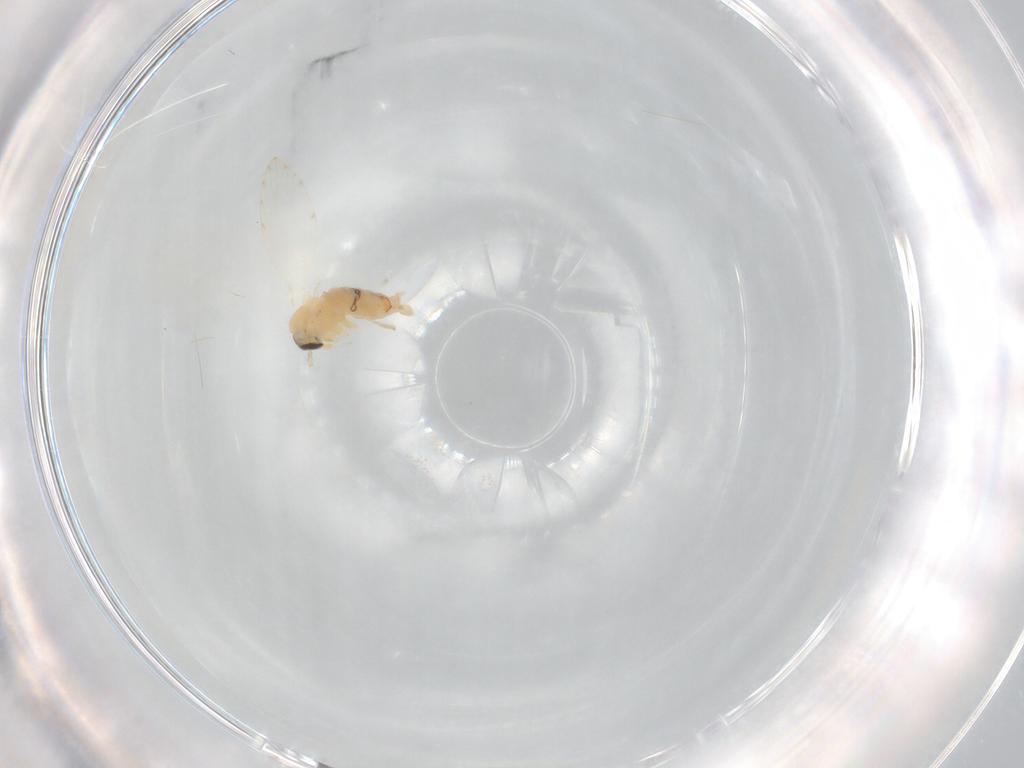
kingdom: Animalia
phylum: Arthropoda
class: Insecta
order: Diptera
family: Psychodidae
